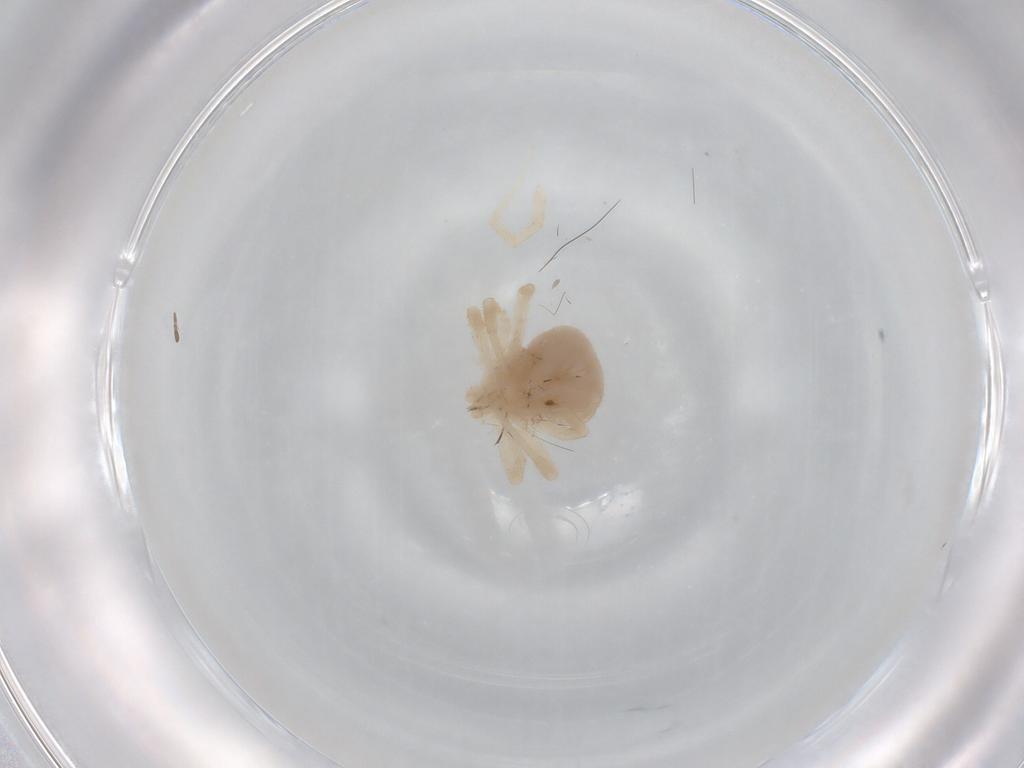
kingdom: Animalia
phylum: Arthropoda
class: Arachnida
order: Trombidiformes
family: Anystidae
